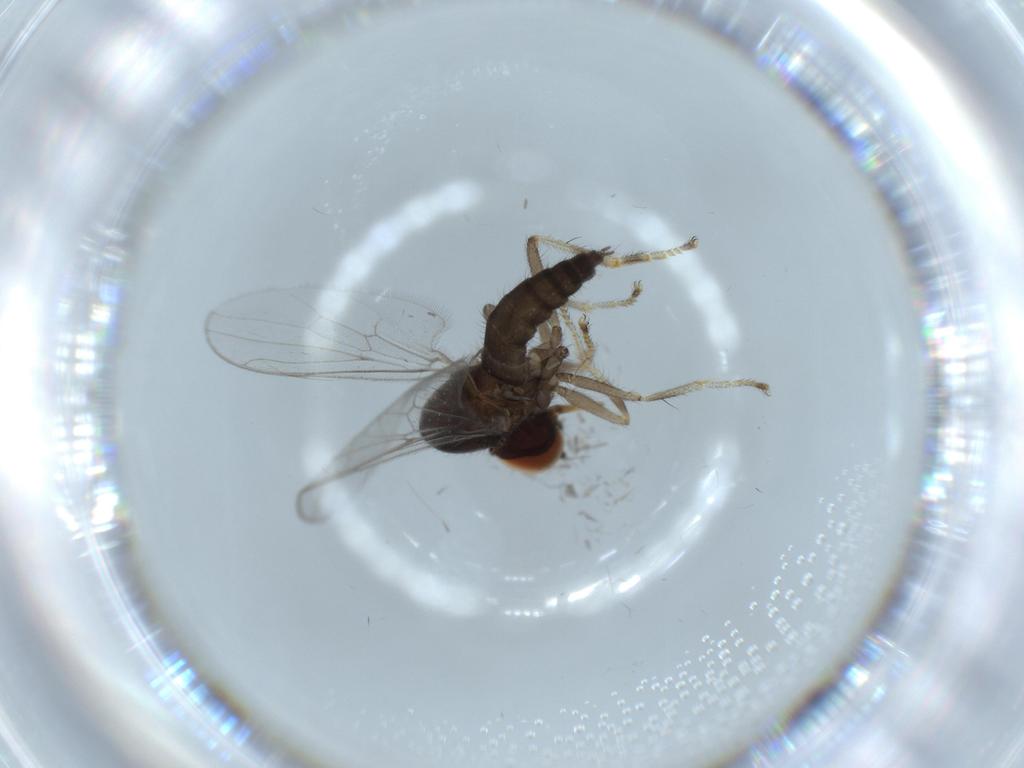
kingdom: Animalia
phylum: Arthropoda
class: Insecta
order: Diptera
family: Hybotidae
